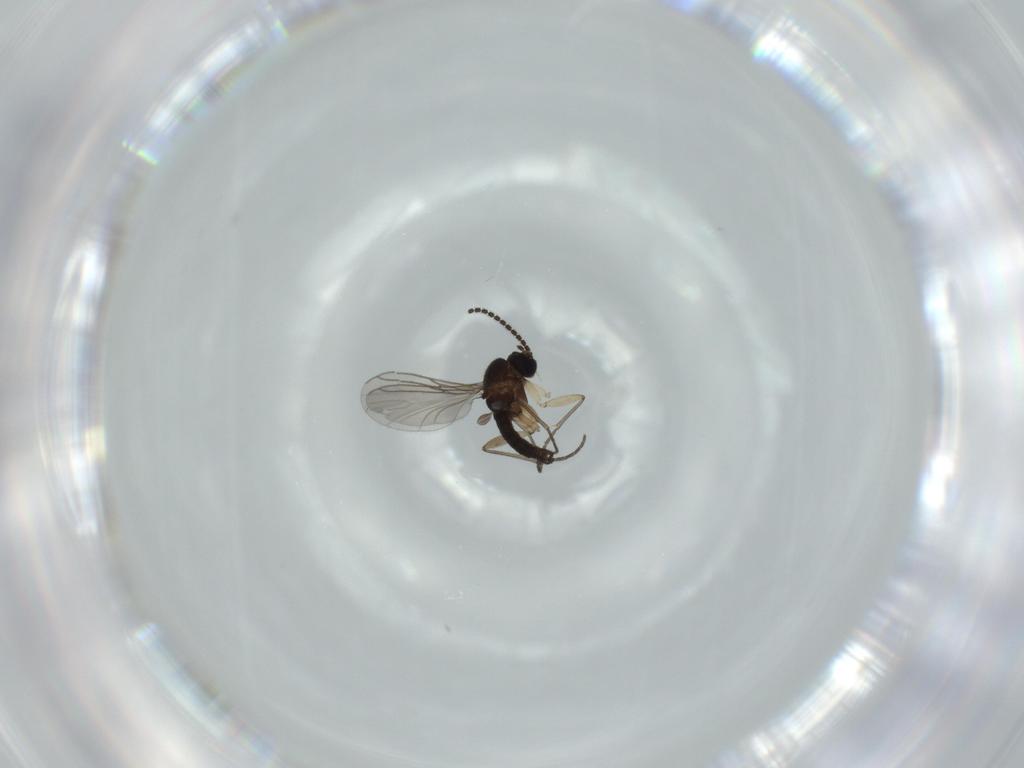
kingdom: Animalia
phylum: Arthropoda
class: Insecta
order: Diptera
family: Sciaridae
